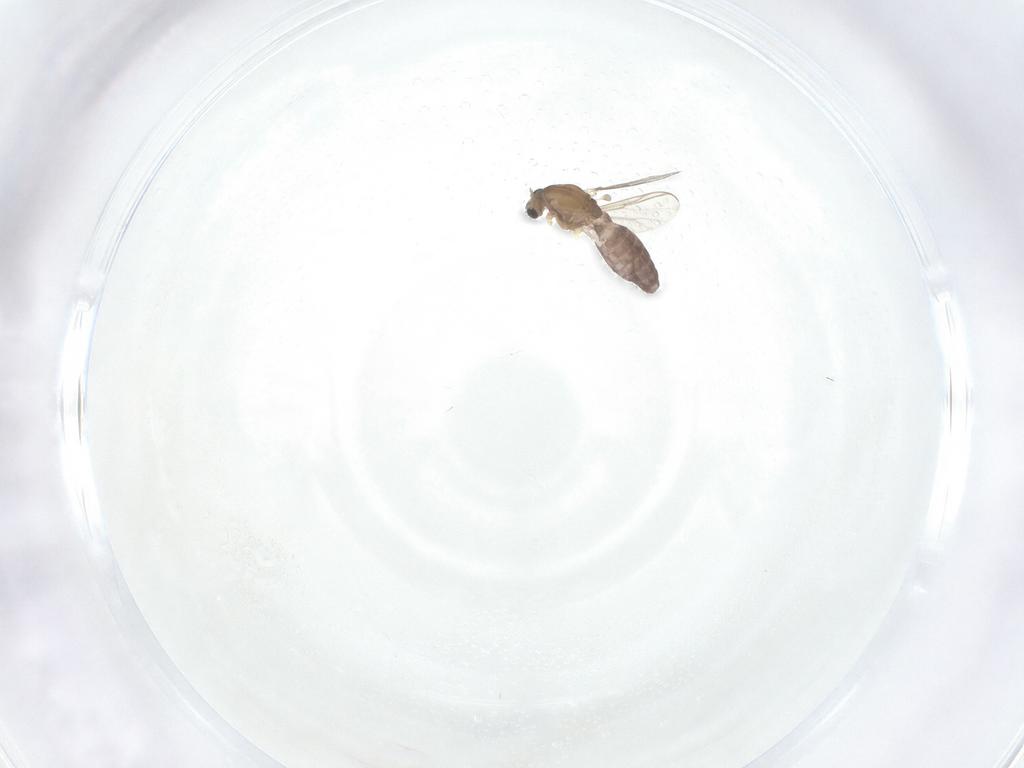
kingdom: Animalia
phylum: Arthropoda
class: Insecta
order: Diptera
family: Chironomidae
